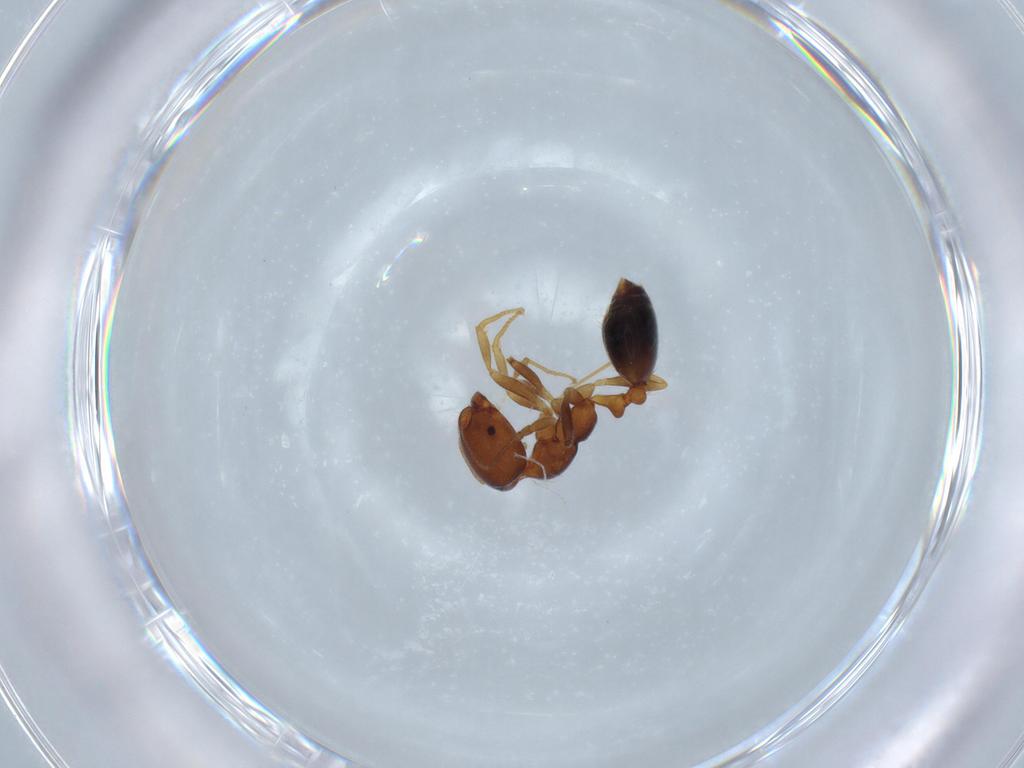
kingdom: Animalia
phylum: Arthropoda
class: Insecta
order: Hymenoptera
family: Formicidae
